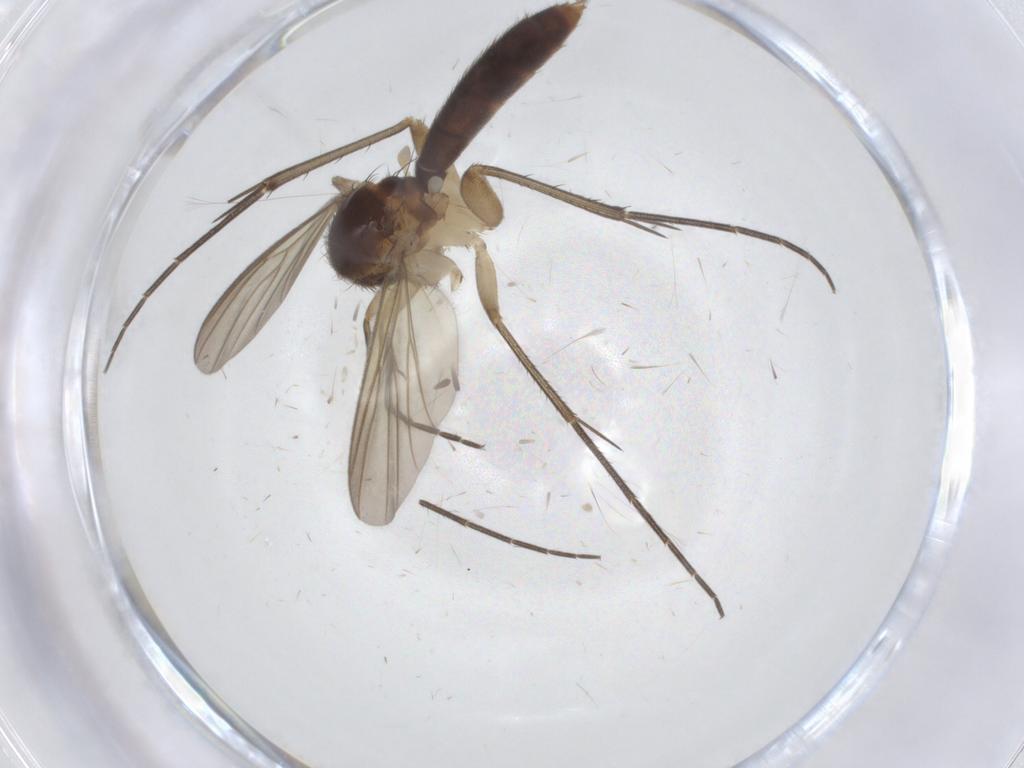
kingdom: Animalia
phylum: Arthropoda
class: Insecta
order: Diptera
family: Mycetophilidae
